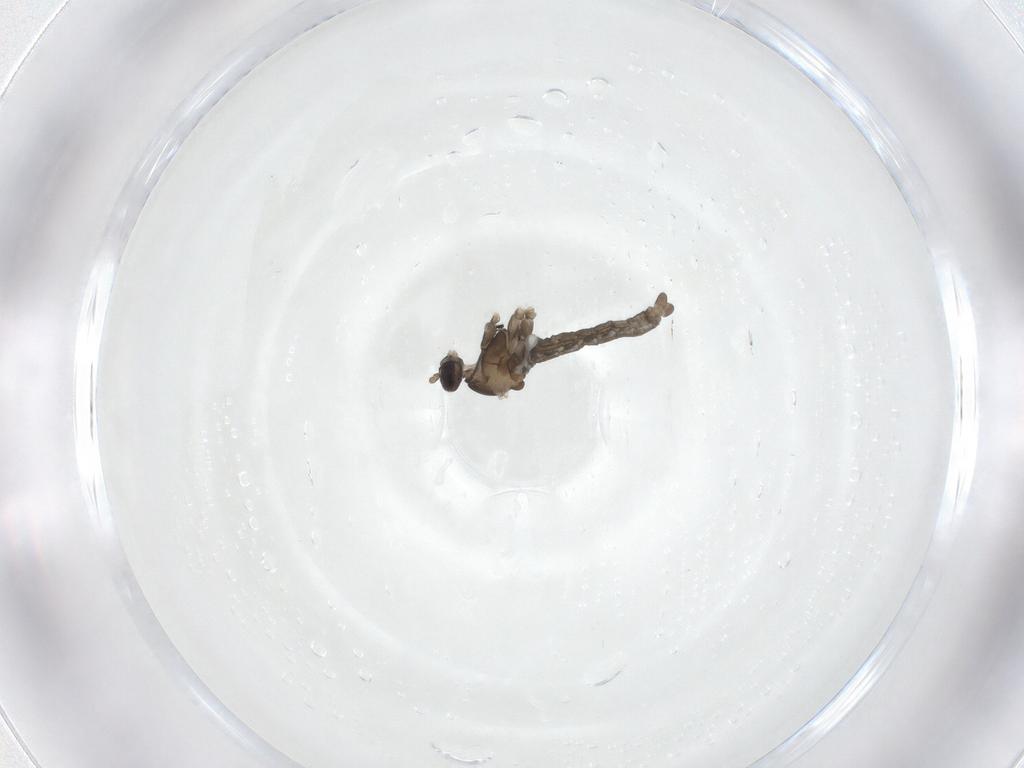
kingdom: Animalia
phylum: Arthropoda
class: Insecta
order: Diptera
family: Cecidomyiidae
